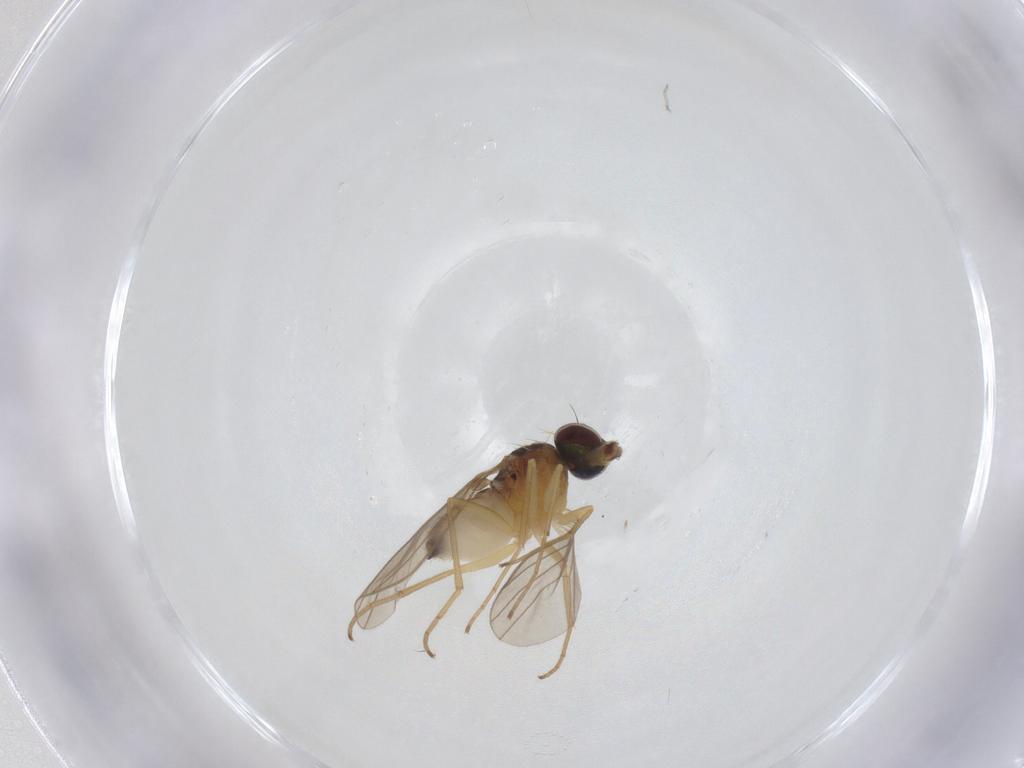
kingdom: Animalia
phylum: Arthropoda
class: Insecta
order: Diptera
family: Dolichopodidae
